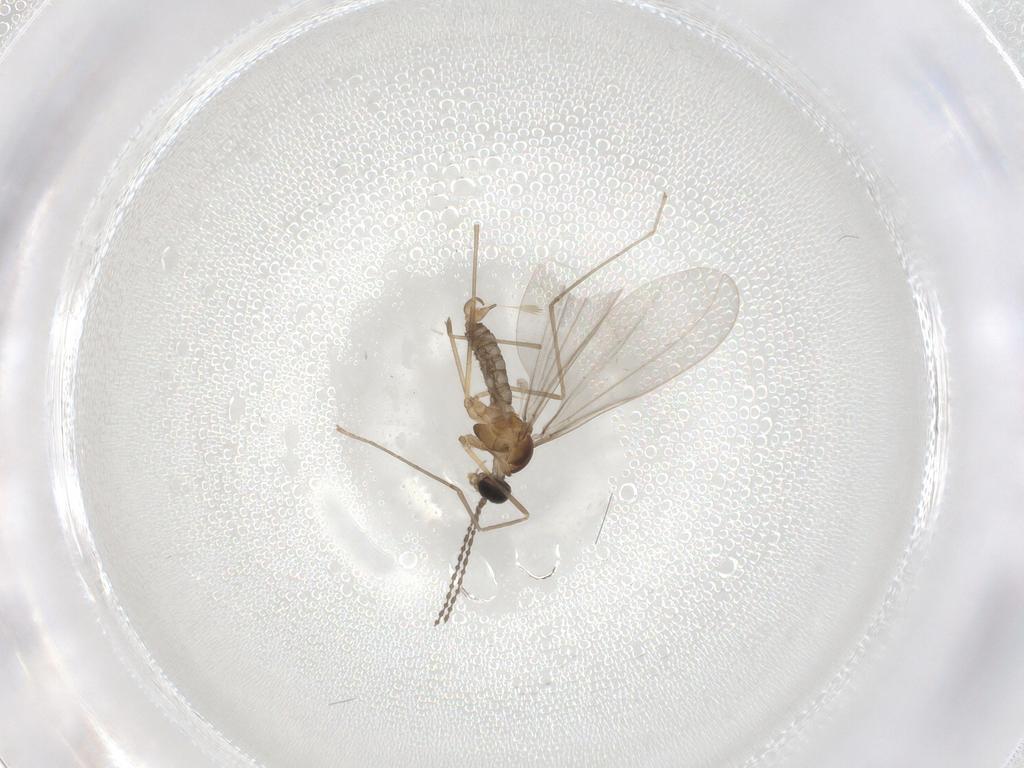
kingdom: Animalia
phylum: Arthropoda
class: Insecta
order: Diptera
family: Cecidomyiidae
